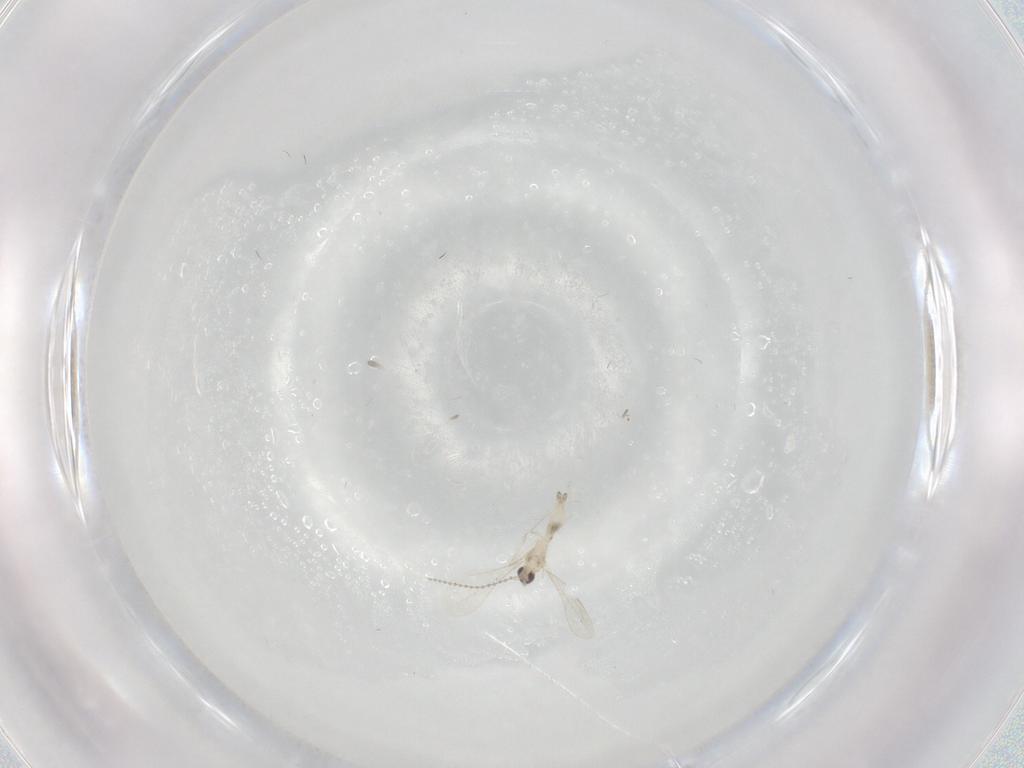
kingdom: Animalia
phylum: Arthropoda
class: Insecta
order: Diptera
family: Cecidomyiidae
